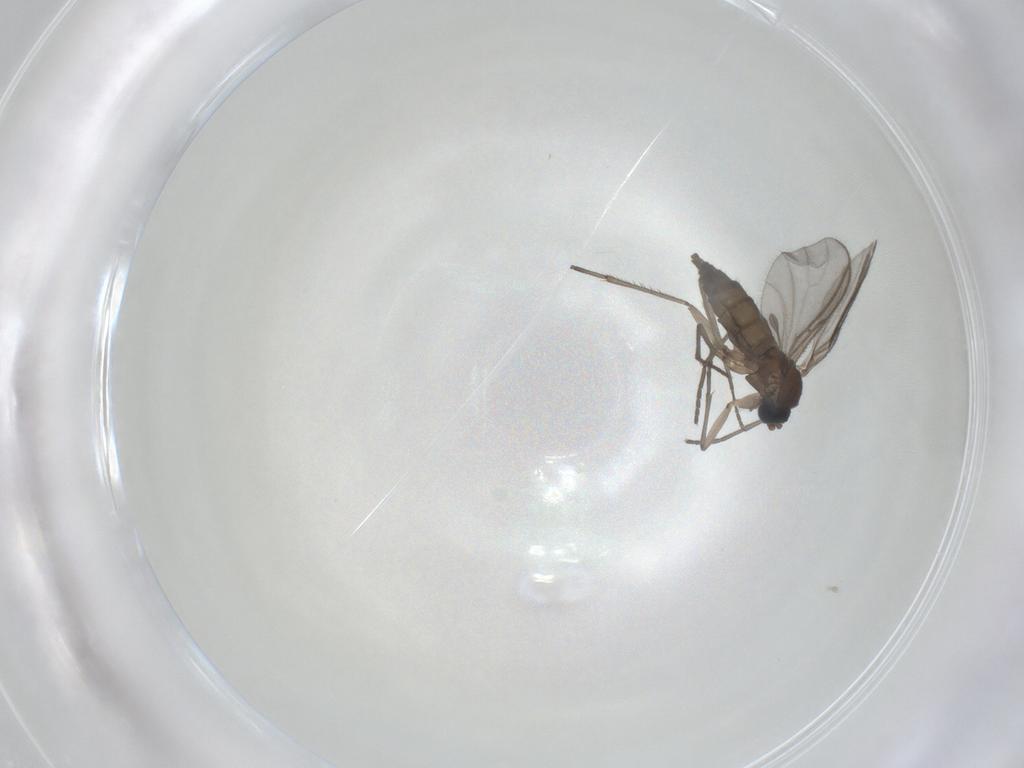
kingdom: Animalia
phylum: Arthropoda
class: Insecta
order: Diptera
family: Sciaridae
